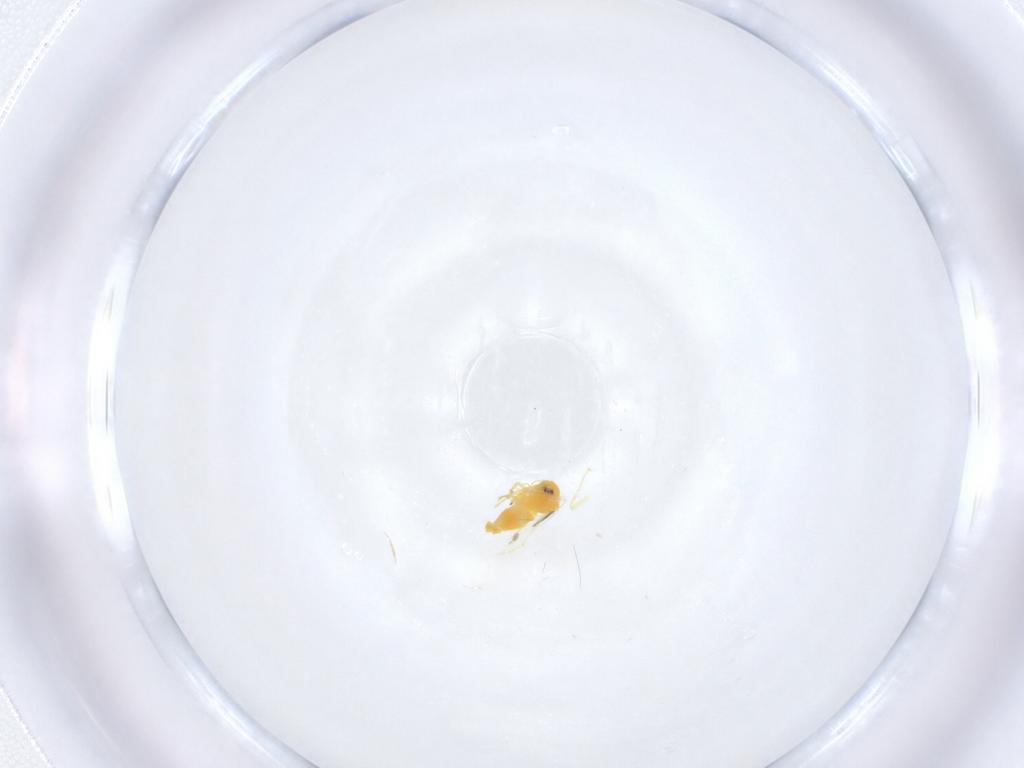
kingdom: Animalia
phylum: Arthropoda
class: Insecta
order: Hemiptera
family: Aleyrodidae
